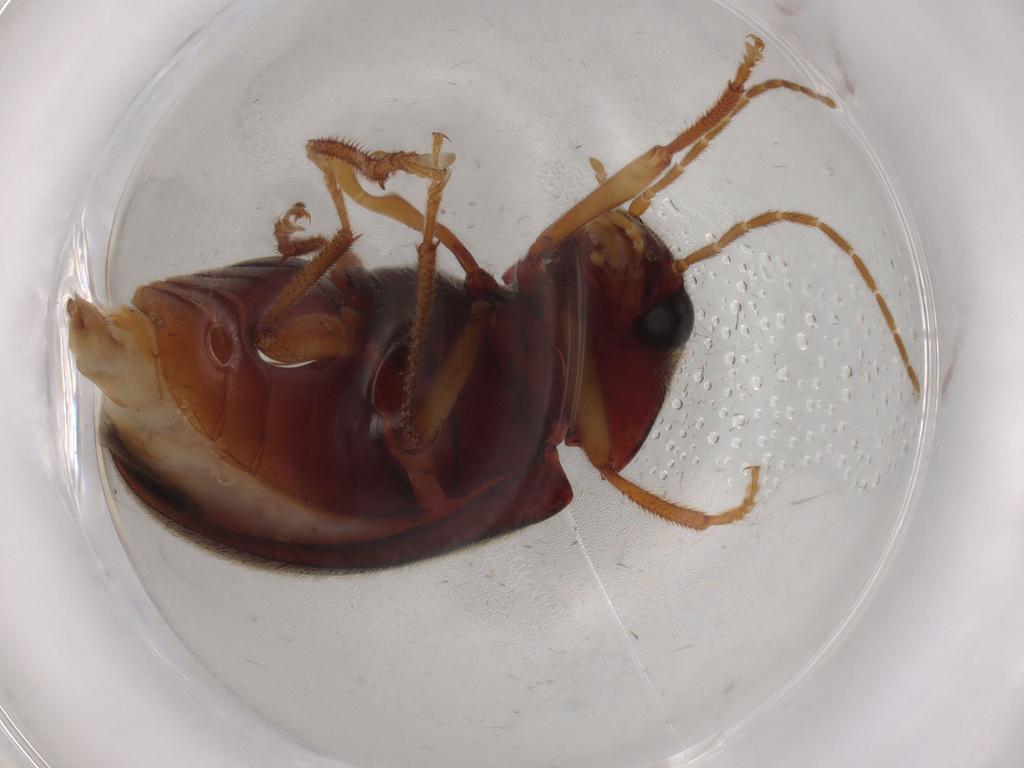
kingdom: Animalia
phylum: Arthropoda
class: Insecta
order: Coleoptera
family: Ptilodactylidae
